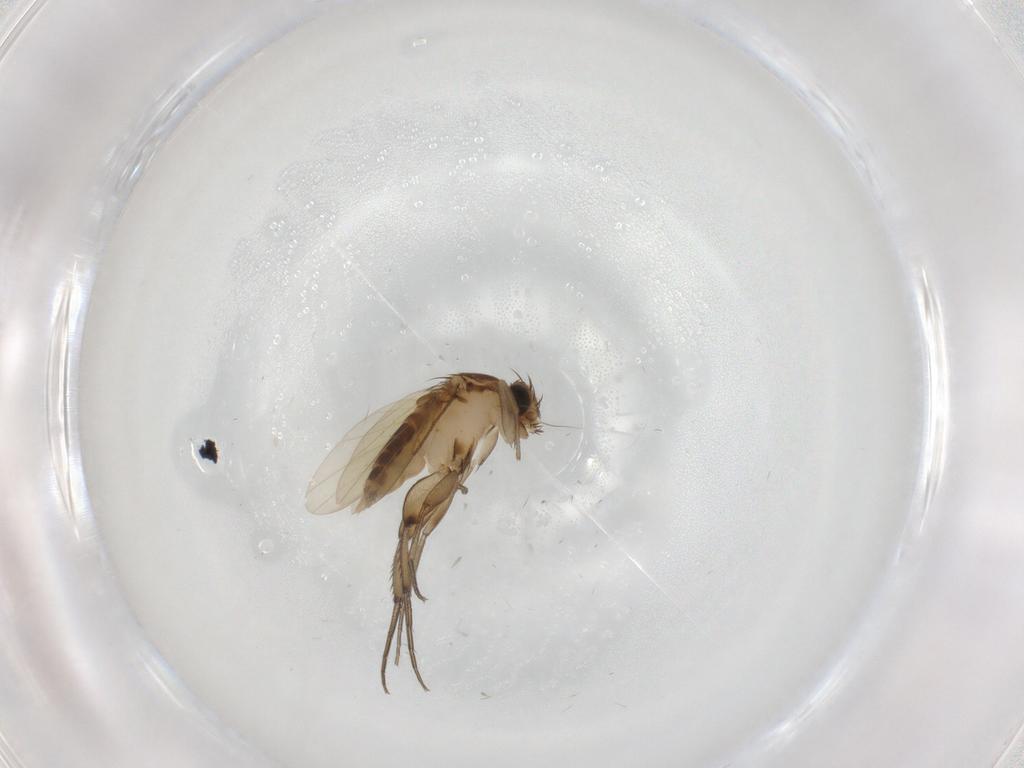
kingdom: Animalia
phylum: Arthropoda
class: Insecta
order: Diptera
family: Phoridae
